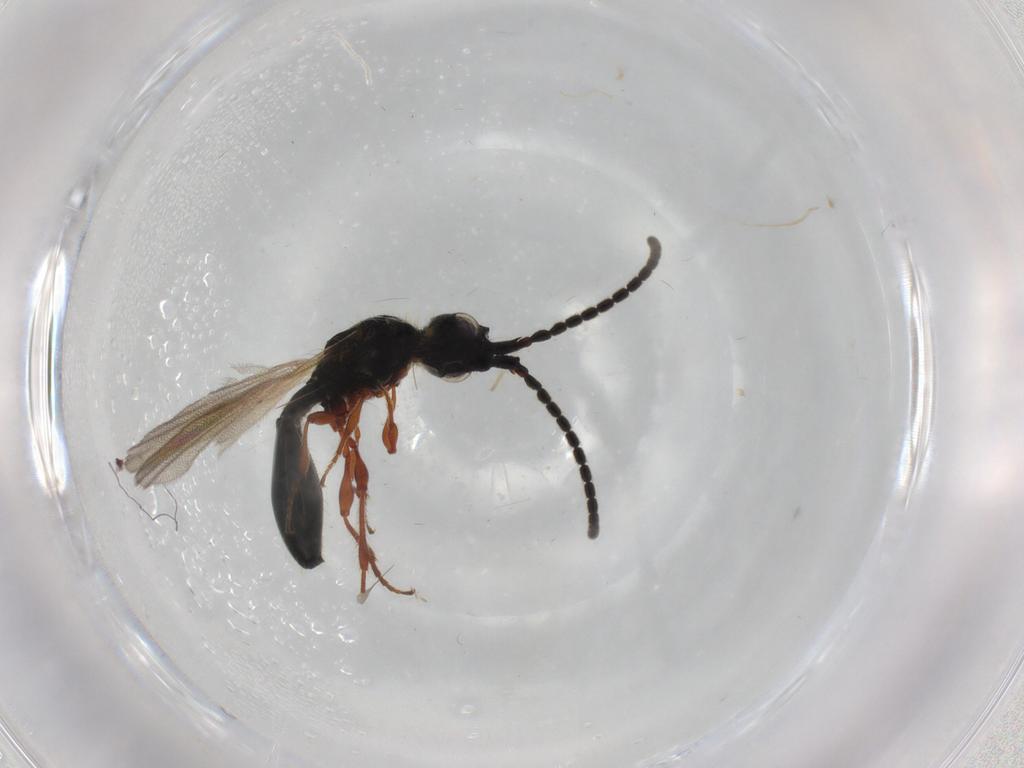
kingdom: Animalia
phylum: Arthropoda
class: Insecta
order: Hymenoptera
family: Diapriidae
